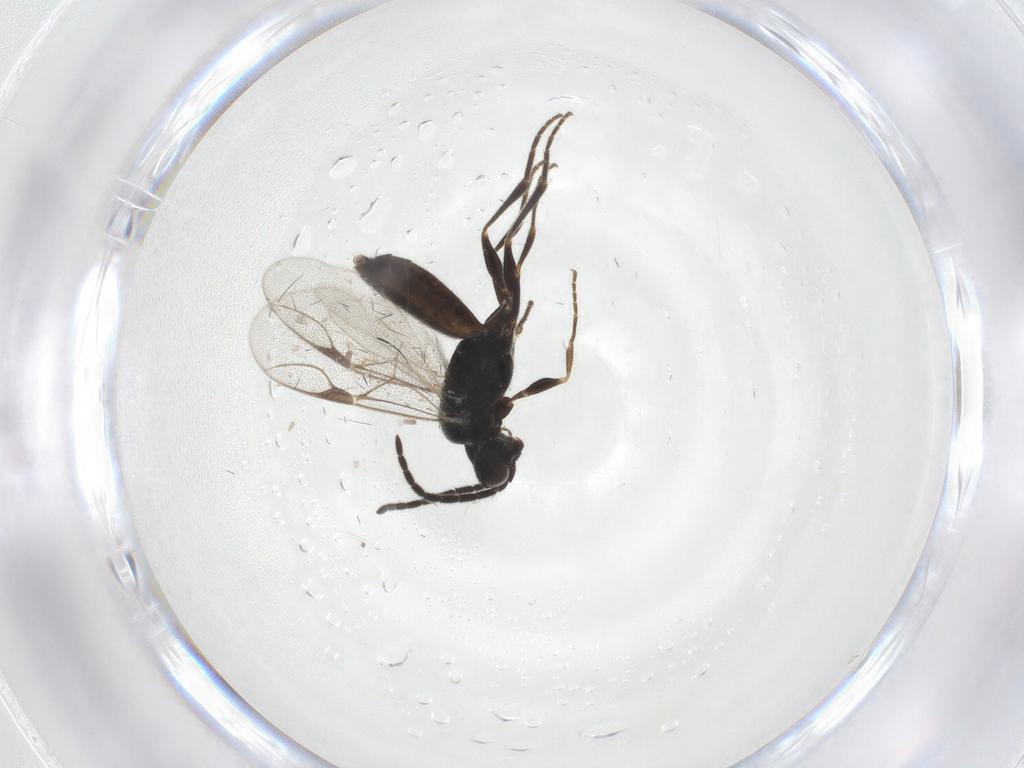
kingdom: Animalia
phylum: Arthropoda
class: Insecta
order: Hymenoptera
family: Dryinidae
